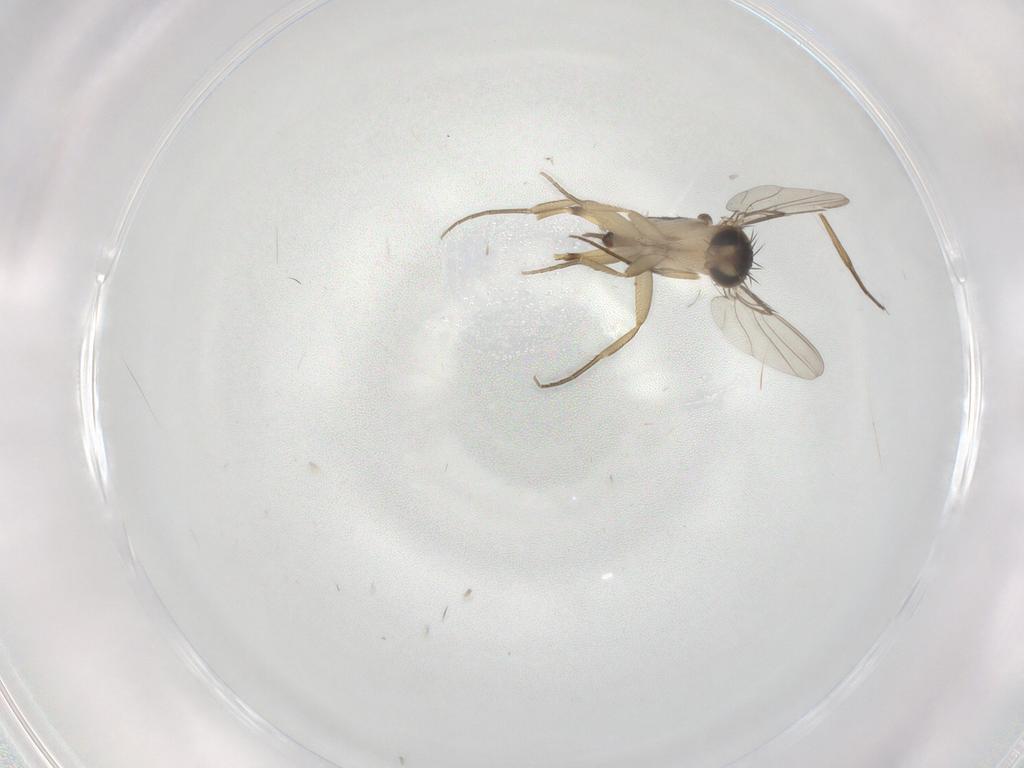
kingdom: Animalia
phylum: Arthropoda
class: Insecta
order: Diptera
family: Phoridae
